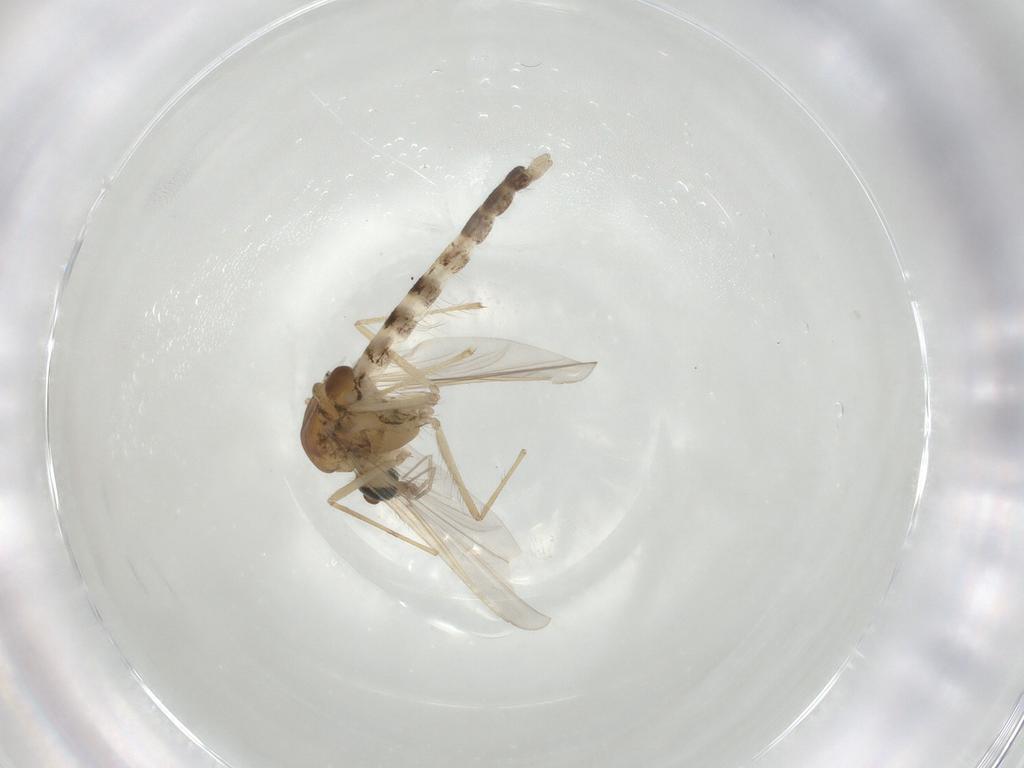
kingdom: Animalia
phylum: Arthropoda
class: Insecta
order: Diptera
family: Chironomidae
